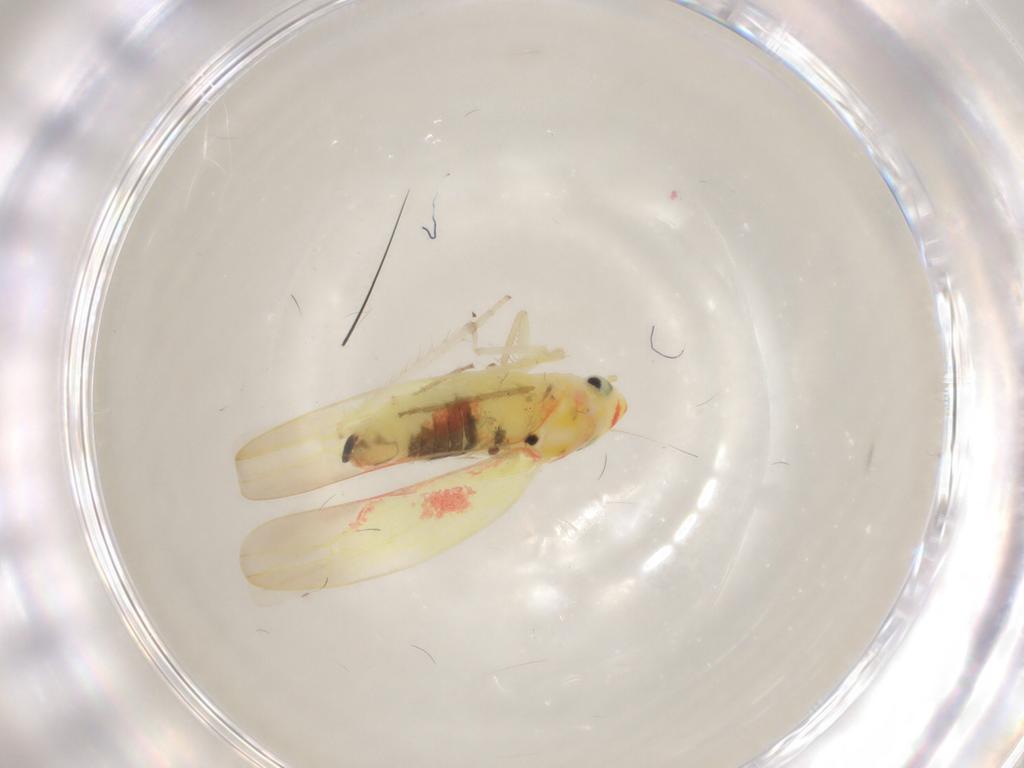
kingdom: Animalia
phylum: Arthropoda
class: Insecta
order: Hemiptera
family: Cicadellidae
